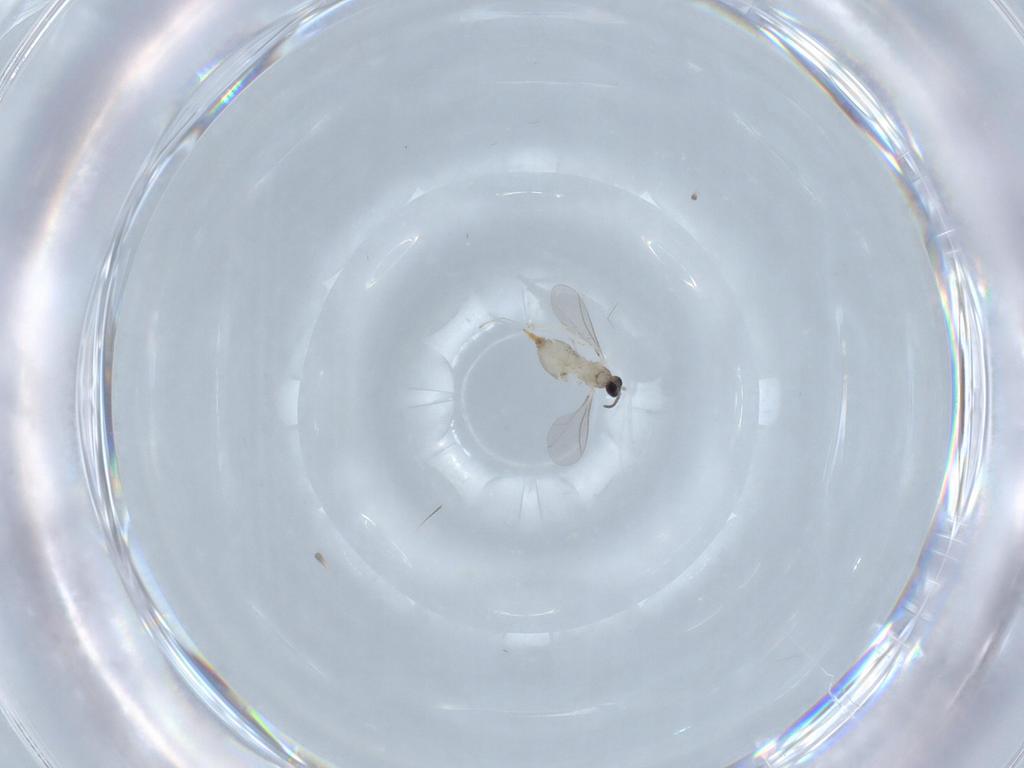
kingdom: Animalia
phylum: Arthropoda
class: Insecta
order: Diptera
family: Cecidomyiidae
